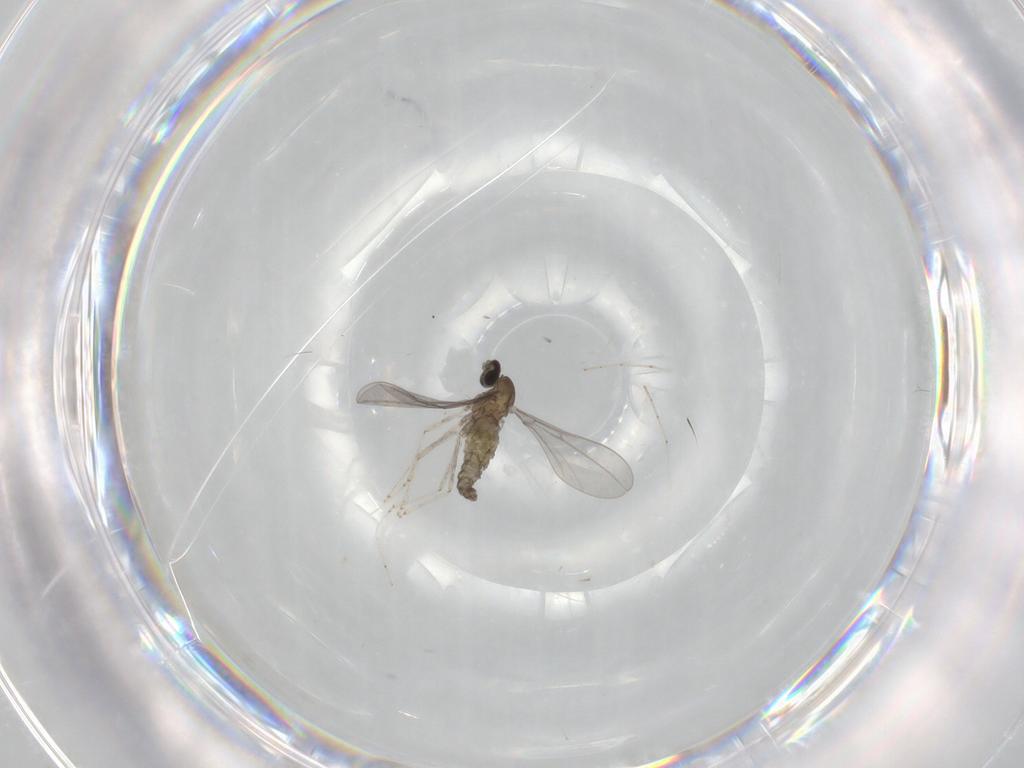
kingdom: Animalia
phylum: Arthropoda
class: Insecta
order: Diptera
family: Cecidomyiidae
